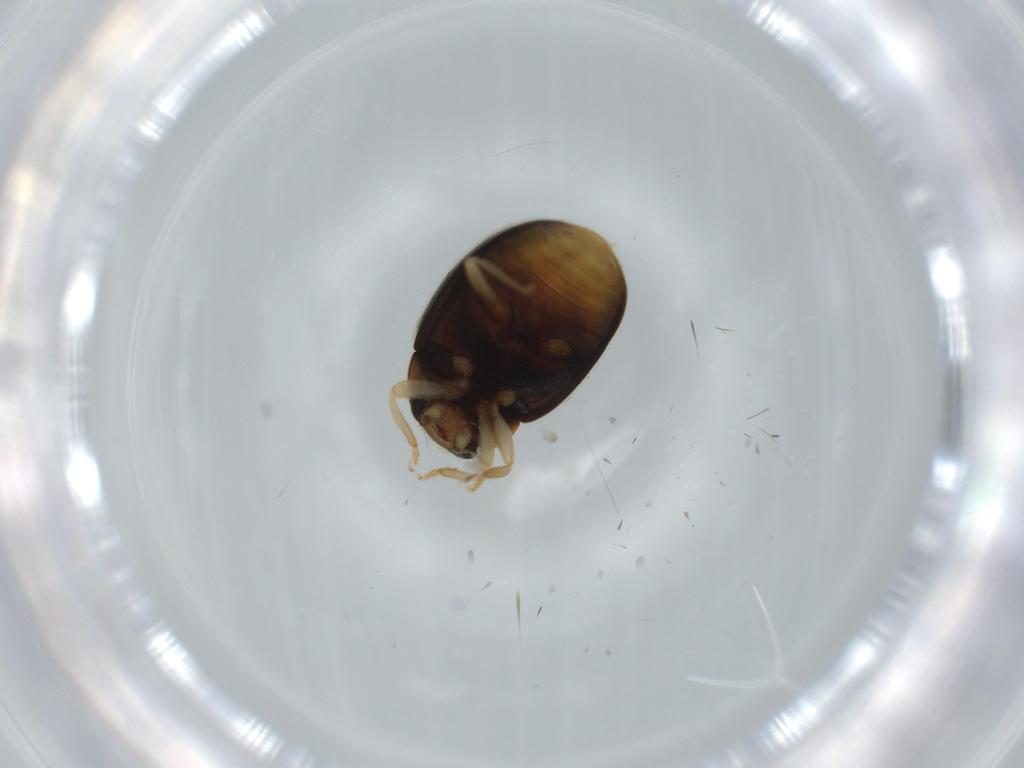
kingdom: Animalia
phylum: Arthropoda
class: Insecta
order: Coleoptera
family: Coccinellidae
